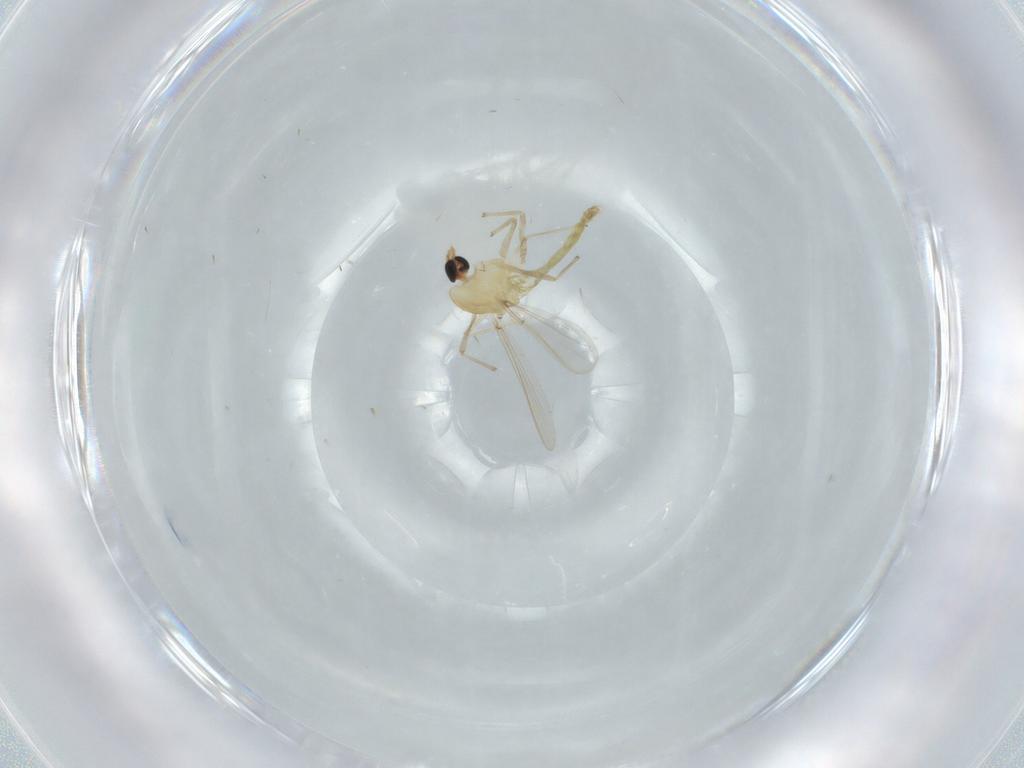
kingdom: Animalia
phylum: Arthropoda
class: Insecta
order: Diptera
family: Chironomidae
